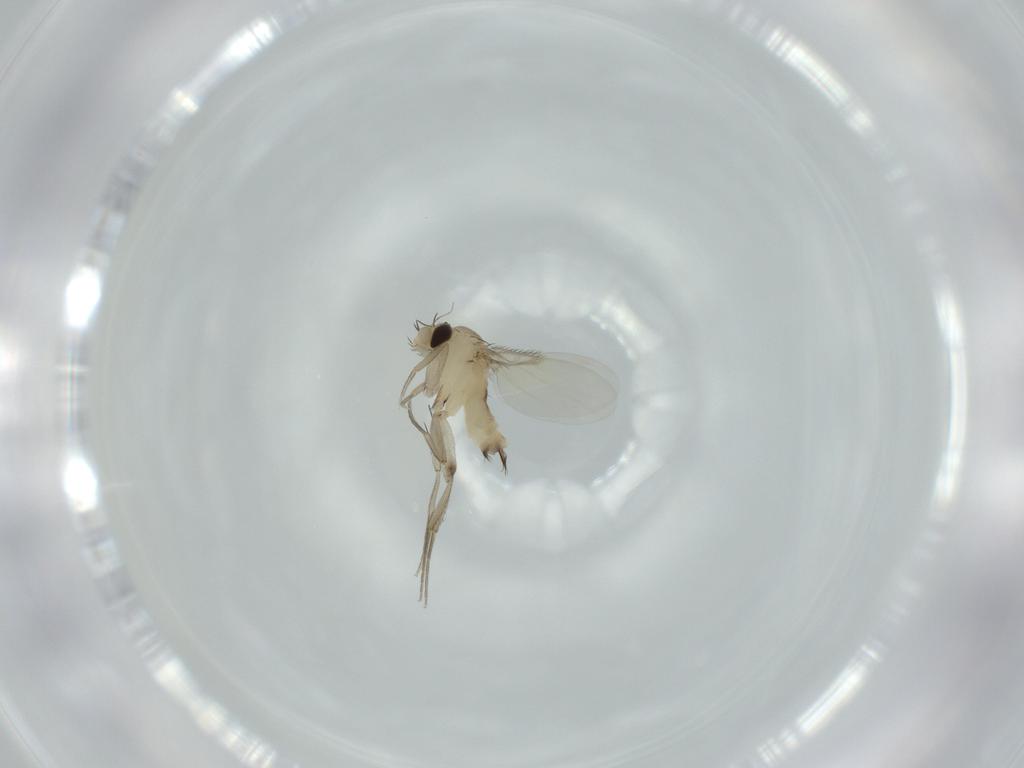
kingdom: Animalia
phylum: Arthropoda
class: Insecta
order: Diptera
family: Phoridae
